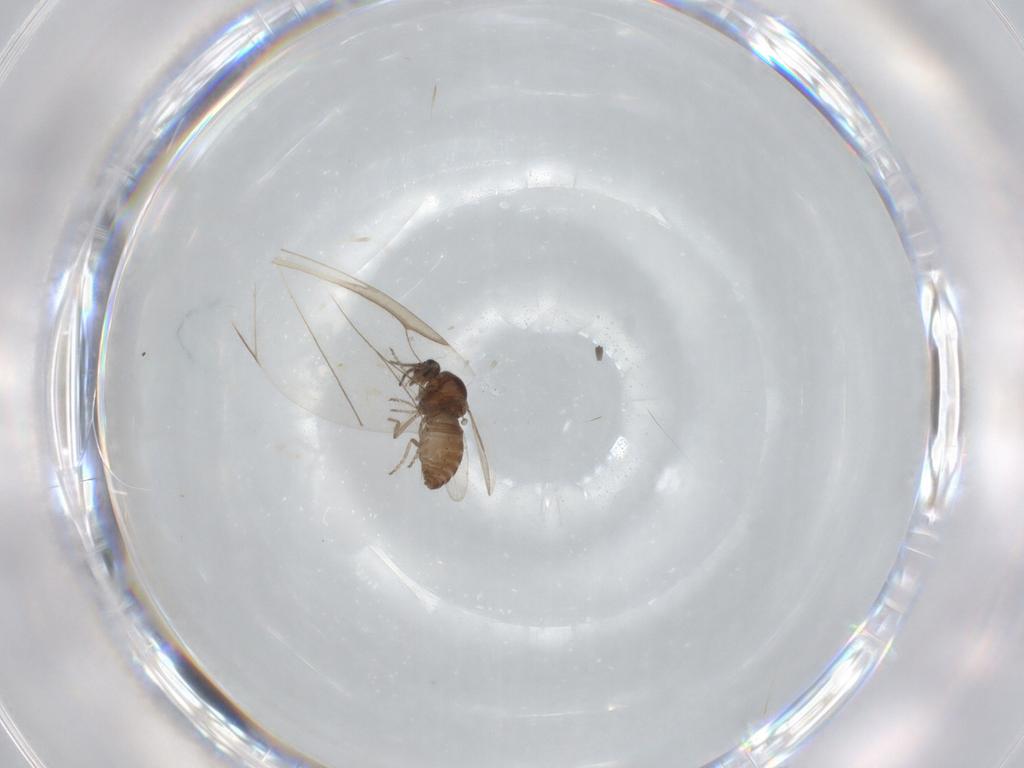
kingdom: Animalia
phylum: Arthropoda
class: Insecta
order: Diptera
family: Ceratopogonidae
